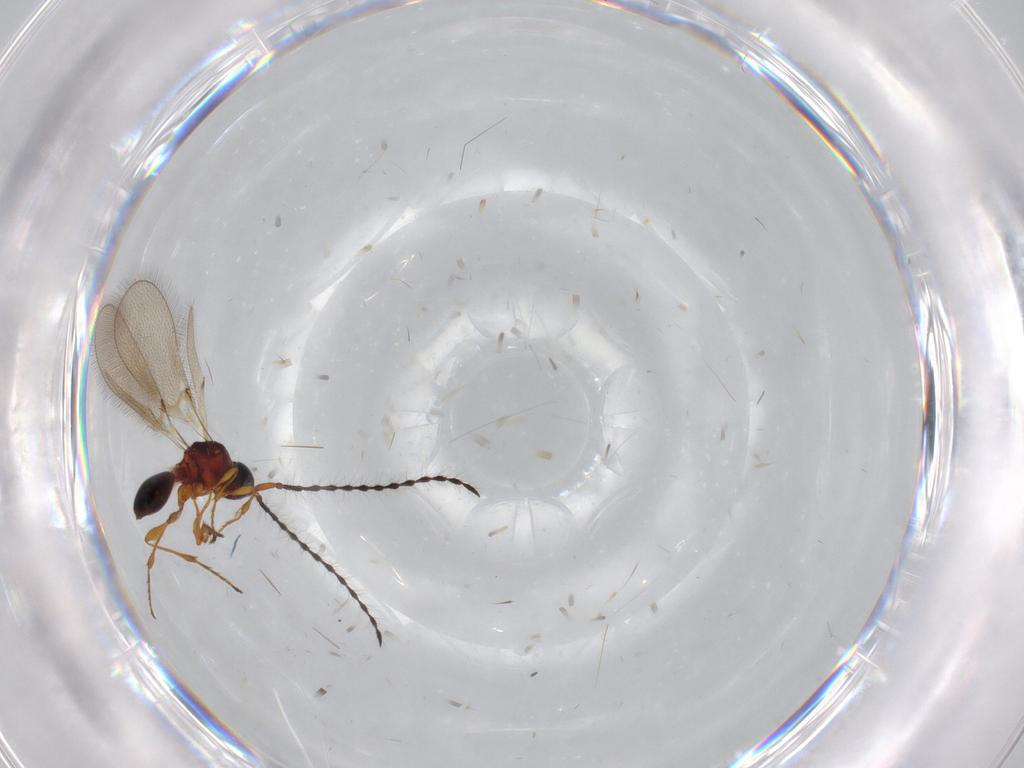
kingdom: Animalia
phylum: Arthropoda
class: Insecta
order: Hymenoptera
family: Diapriidae
